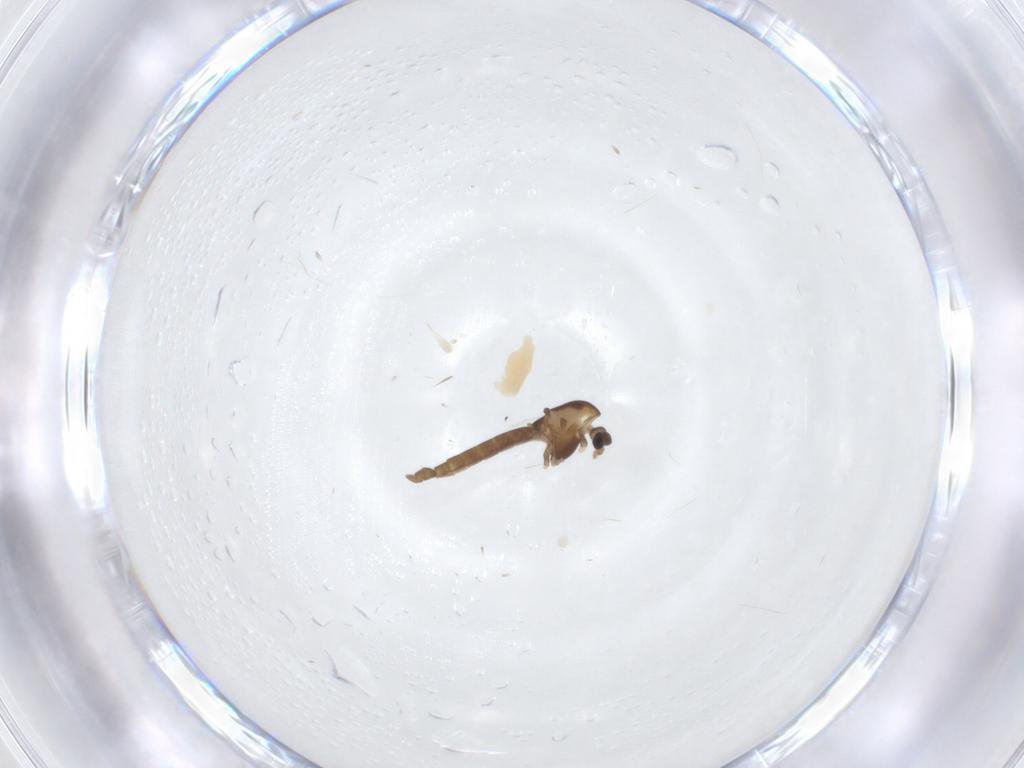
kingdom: Animalia
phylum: Arthropoda
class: Insecta
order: Diptera
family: Chironomidae
